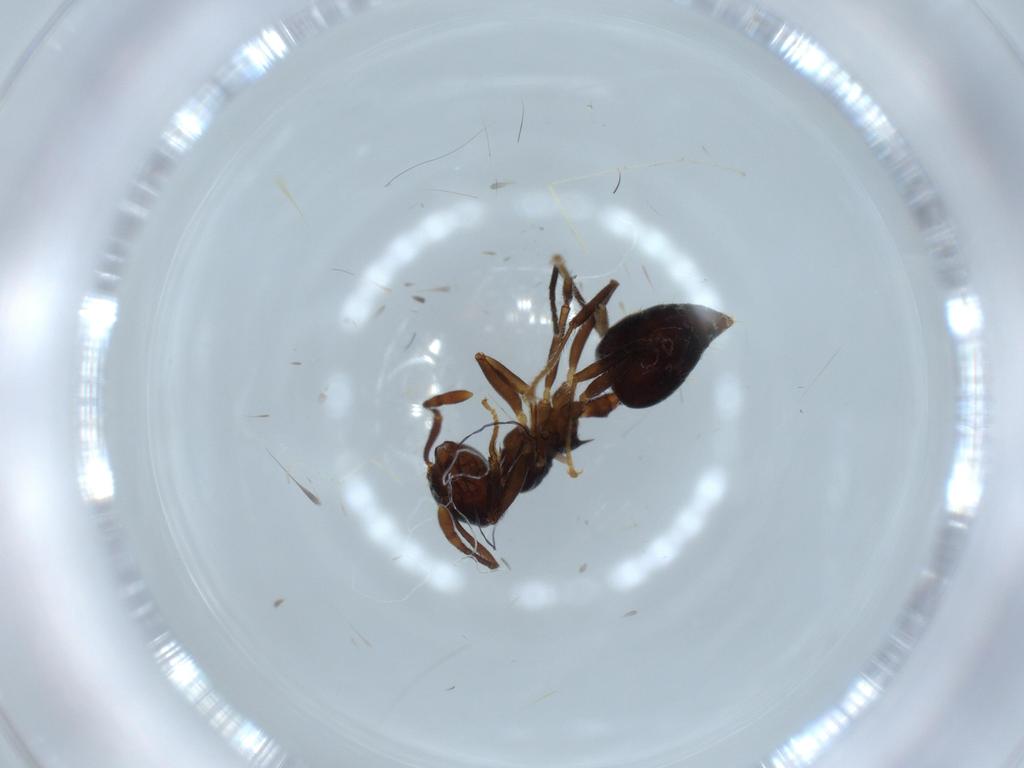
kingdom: Animalia
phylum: Arthropoda
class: Insecta
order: Hymenoptera
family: Formicidae
